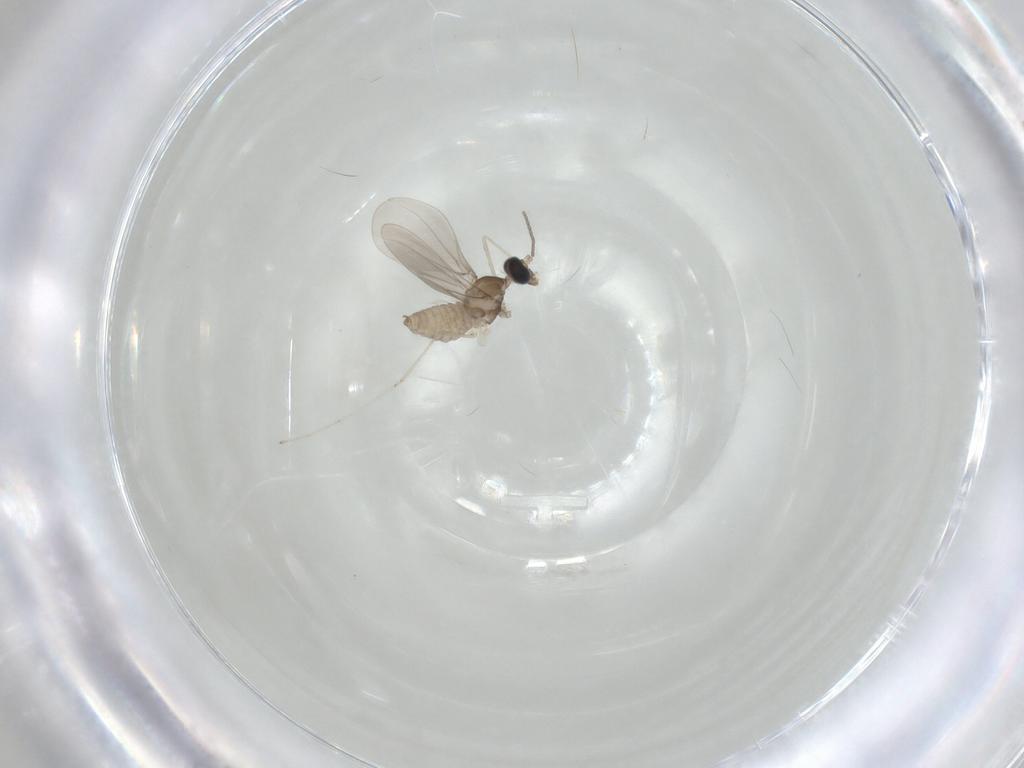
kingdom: Animalia
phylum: Arthropoda
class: Insecta
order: Diptera
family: Cecidomyiidae
